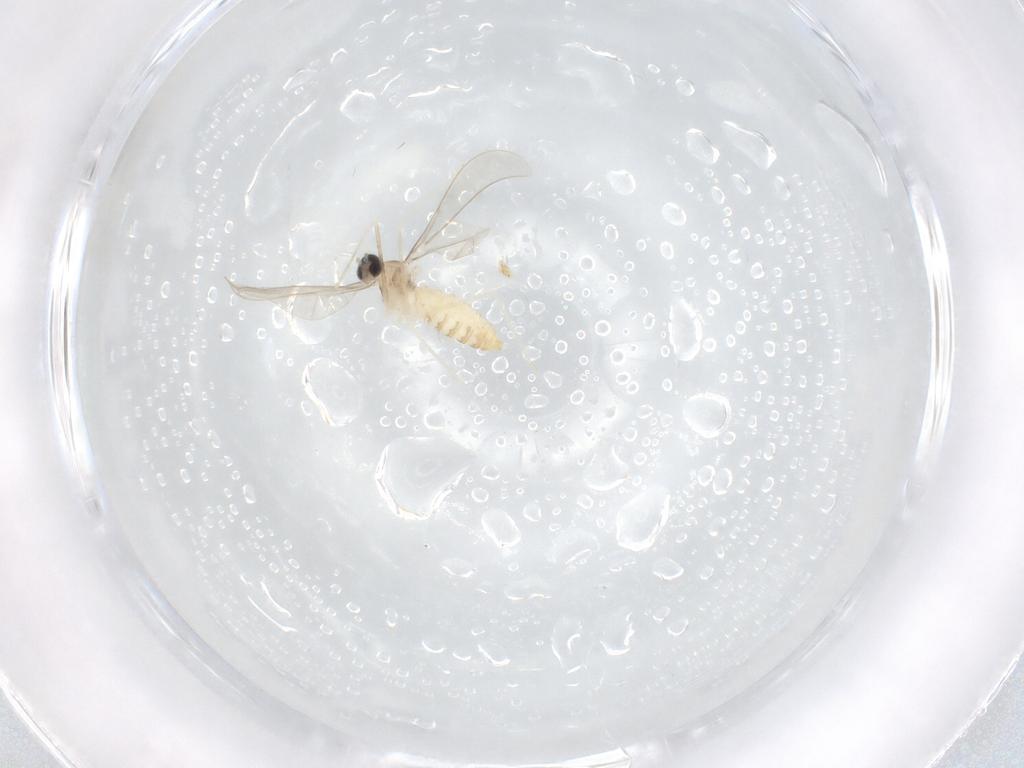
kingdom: Animalia
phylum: Arthropoda
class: Insecta
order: Diptera
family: Cecidomyiidae
